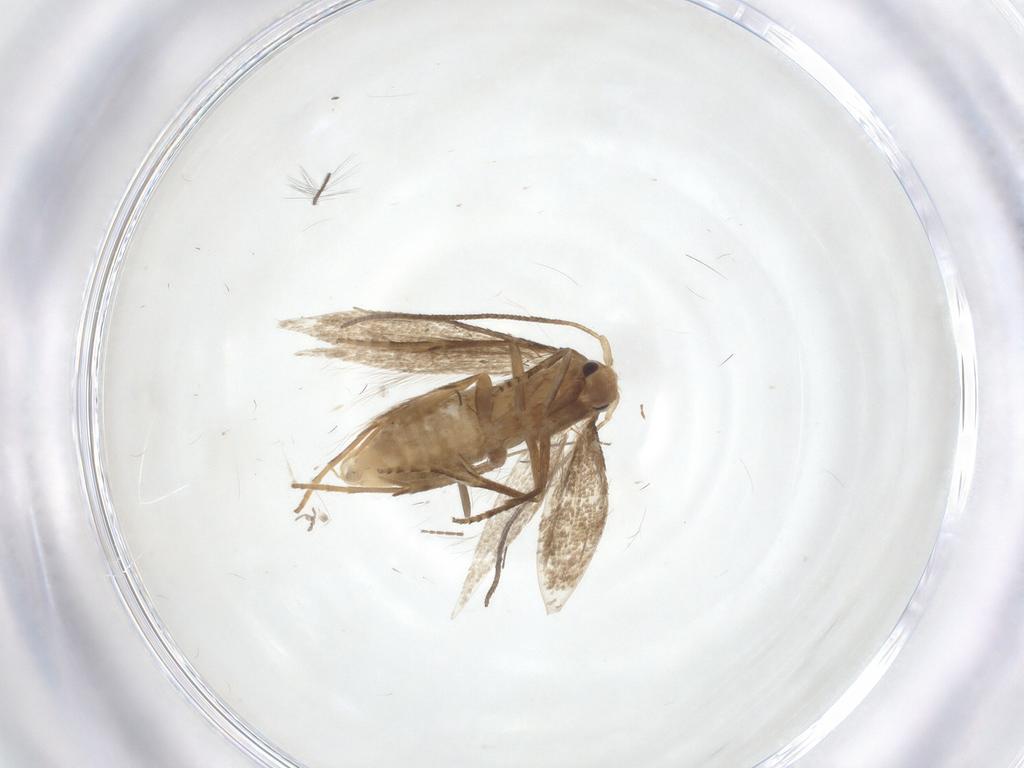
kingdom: Animalia
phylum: Arthropoda
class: Insecta
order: Lepidoptera
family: Bucculatricidae
